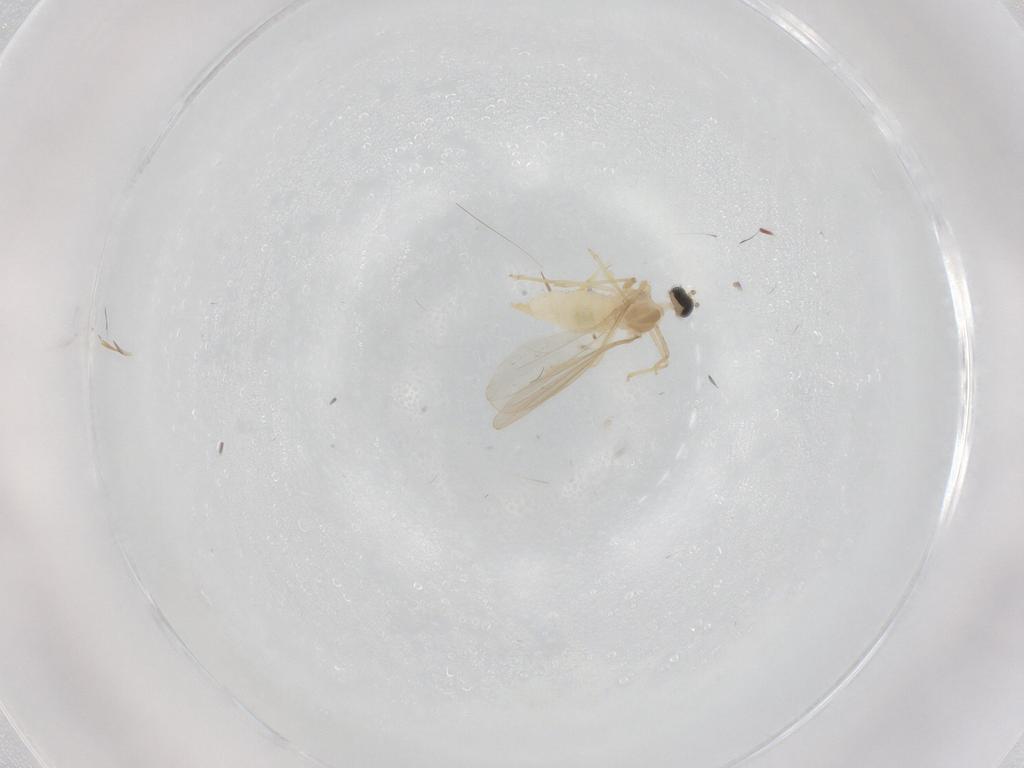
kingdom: Animalia
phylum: Arthropoda
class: Insecta
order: Diptera
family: Cecidomyiidae
